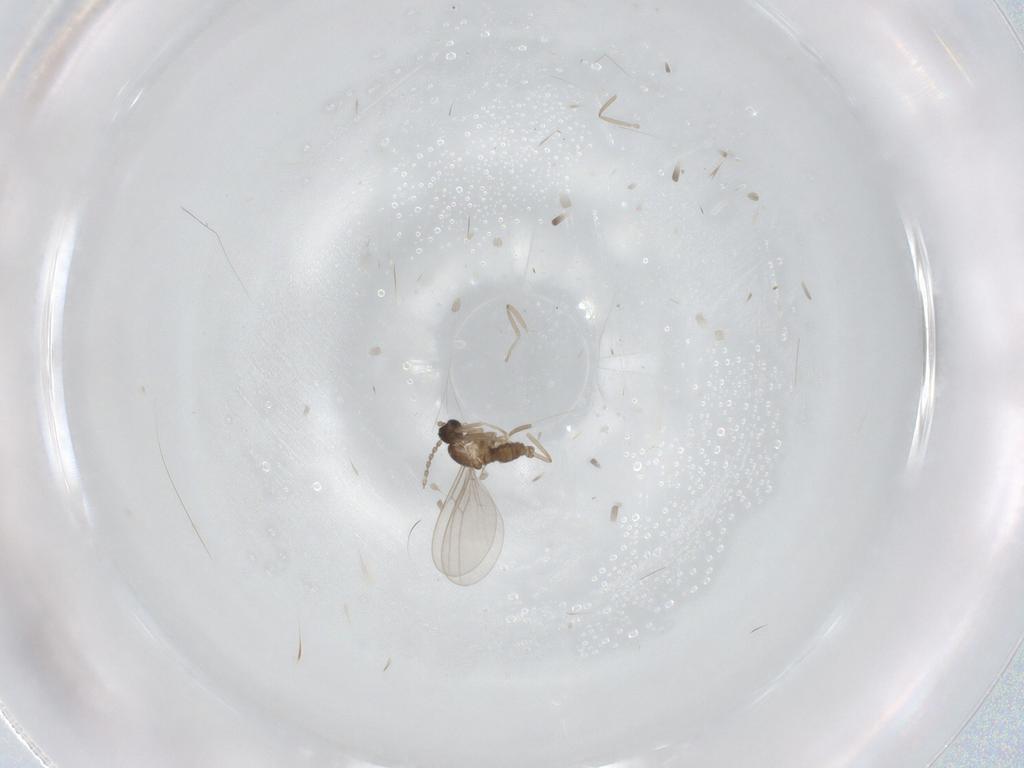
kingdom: Animalia
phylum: Arthropoda
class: Insecta
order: Diptera
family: Cecidomyiidae
